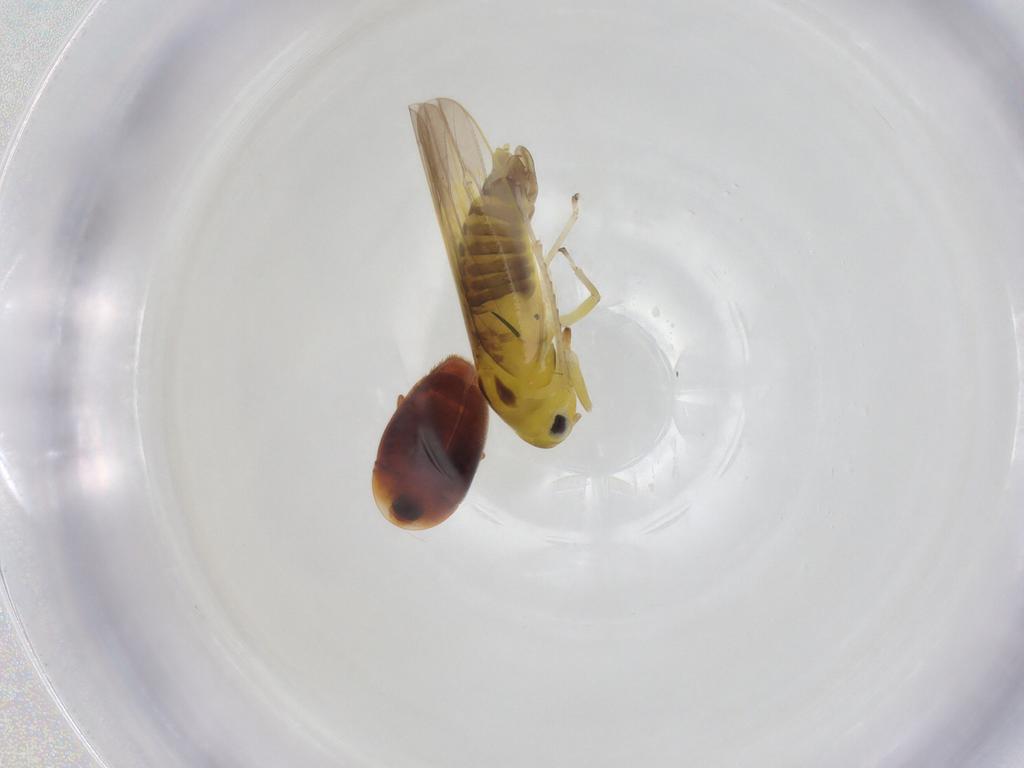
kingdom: Animalia
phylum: Arthropoda
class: Insecta
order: Hemiptera
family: Cicadellidae
